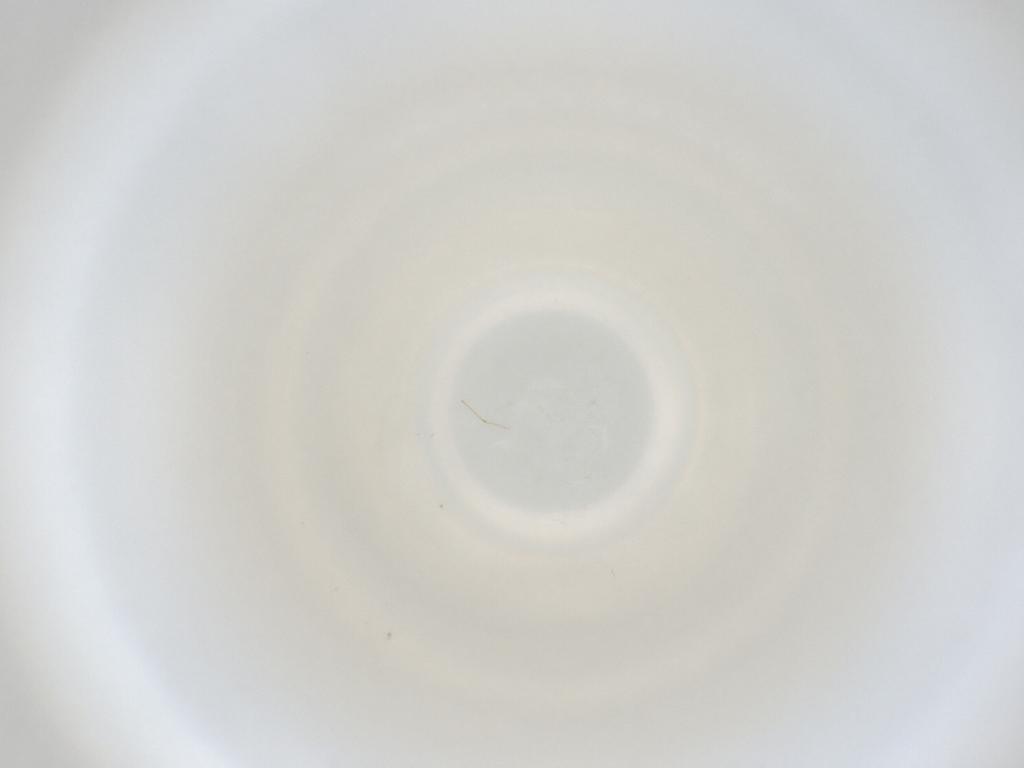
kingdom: Animalia
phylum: Arthropoda
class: Insecta
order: Diptera
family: Cecidomyiidae
